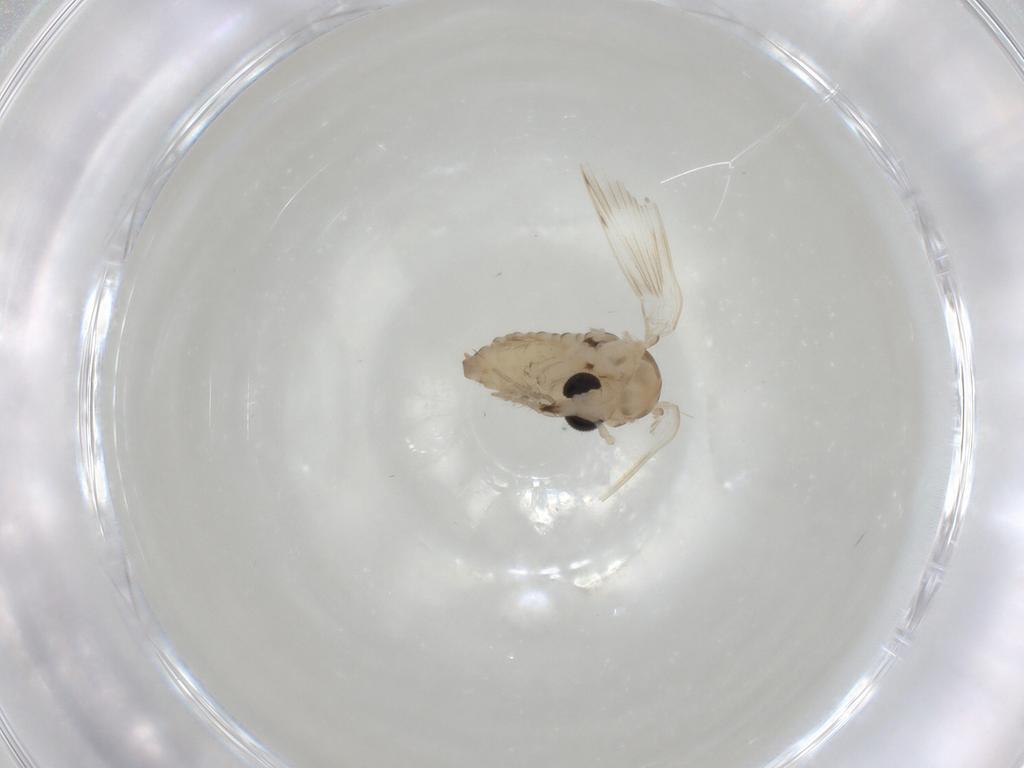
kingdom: Animalia
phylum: Arthropoda
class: Insecta
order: Diptera
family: Psychodidae
